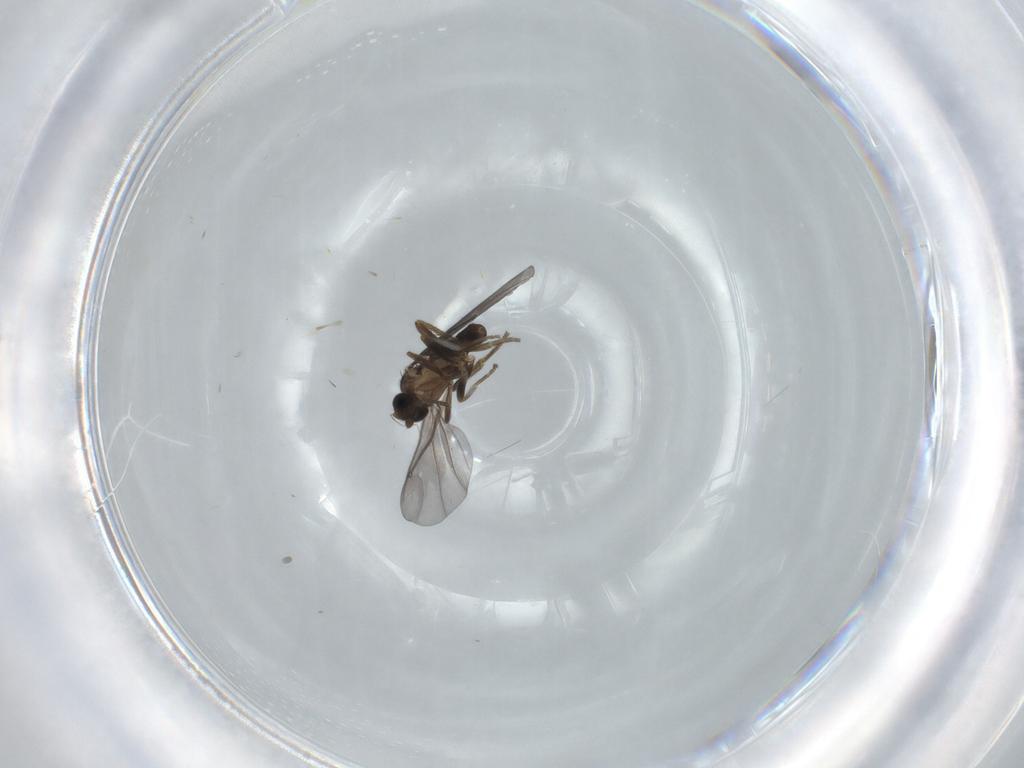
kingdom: Animalia
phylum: Arthropoda
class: Insecta
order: Diptera
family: Phoridae
